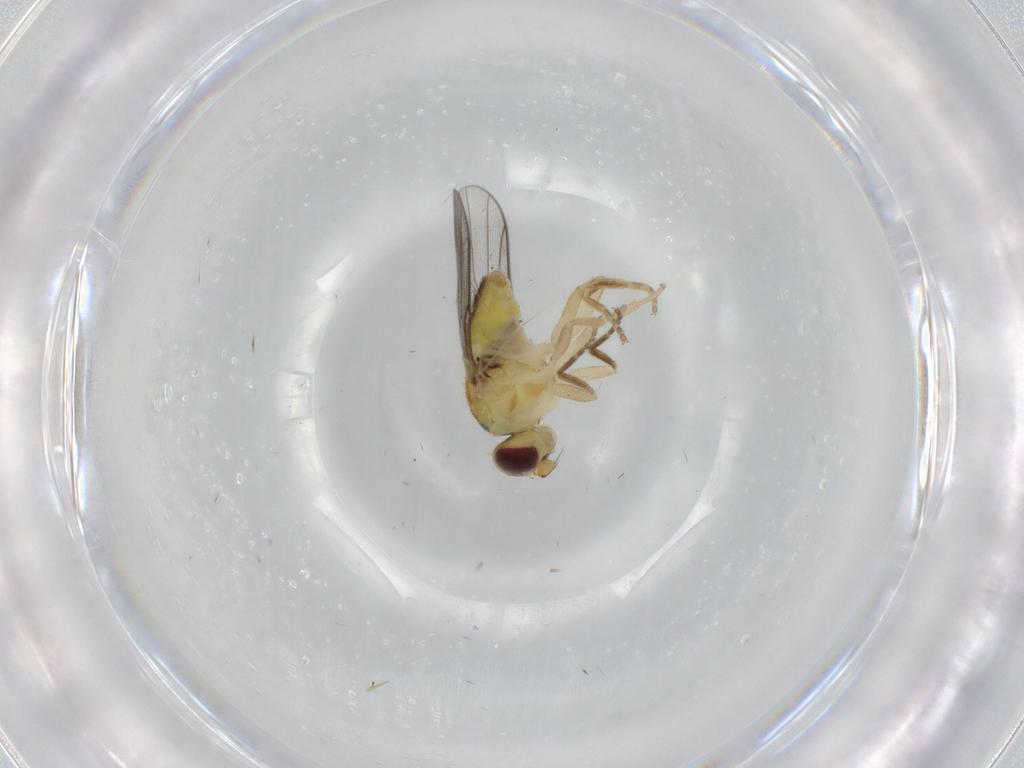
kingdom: Animalia
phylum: Arthropoda
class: Insecta
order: Diptera
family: Chloropidae
